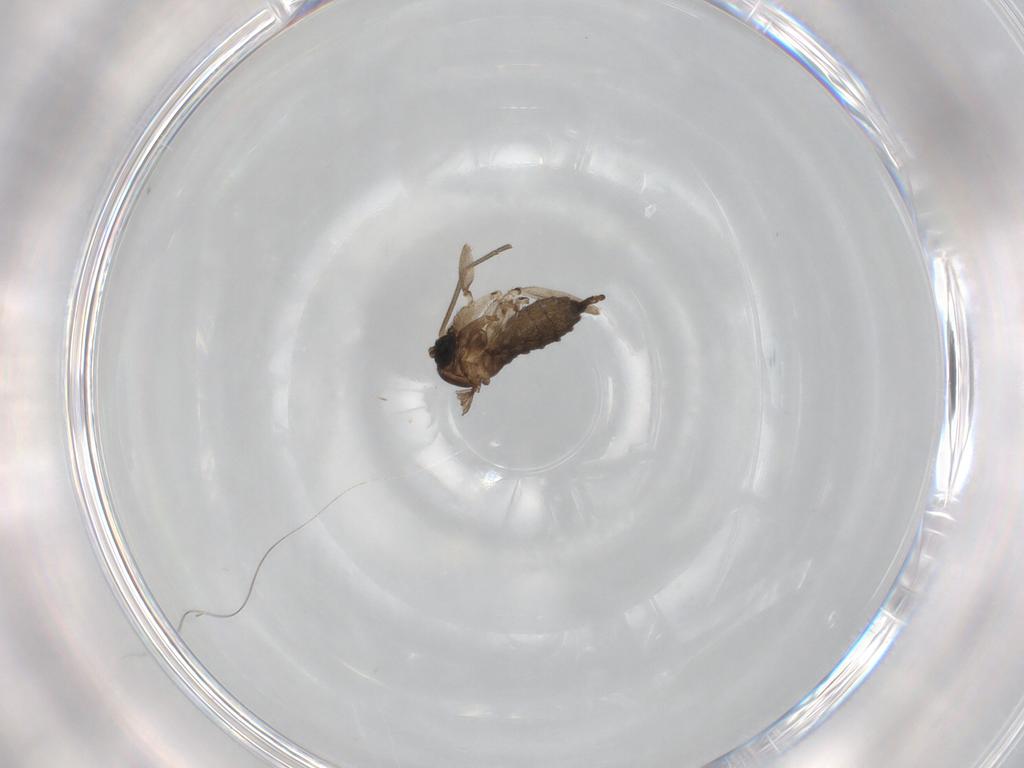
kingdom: Animalia
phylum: Arthropoda
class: Insecta
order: Diptera
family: Sciaridae
